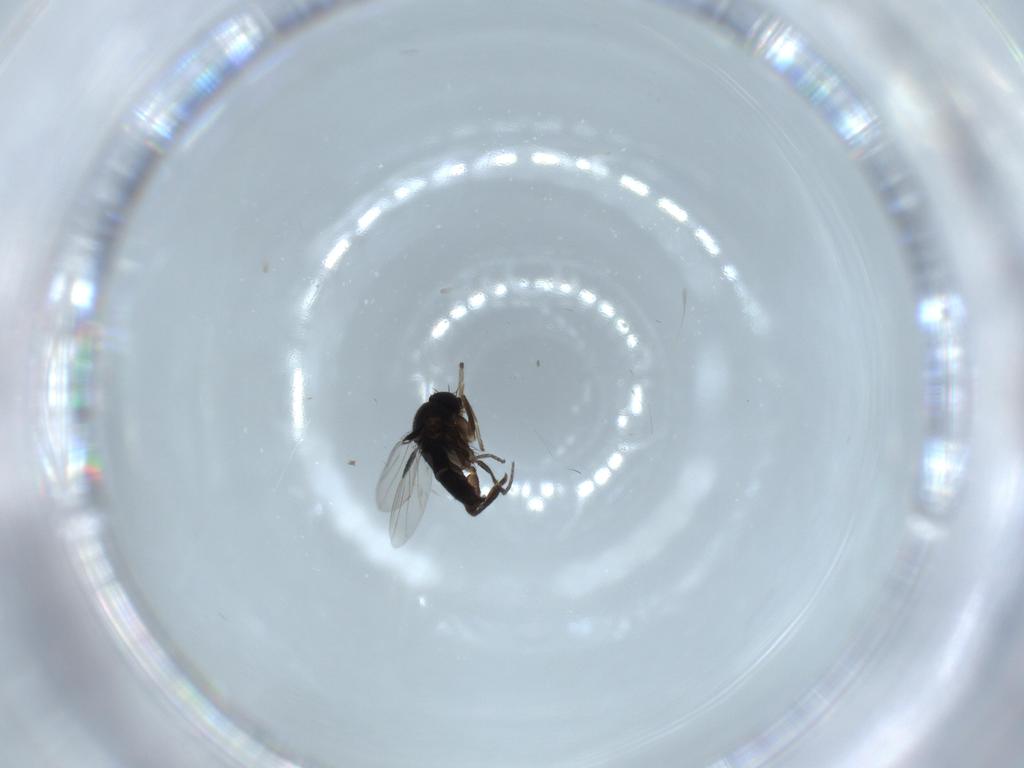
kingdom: Animalia
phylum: Arthropoda
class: Insecta
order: Diptera
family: Phoridae
